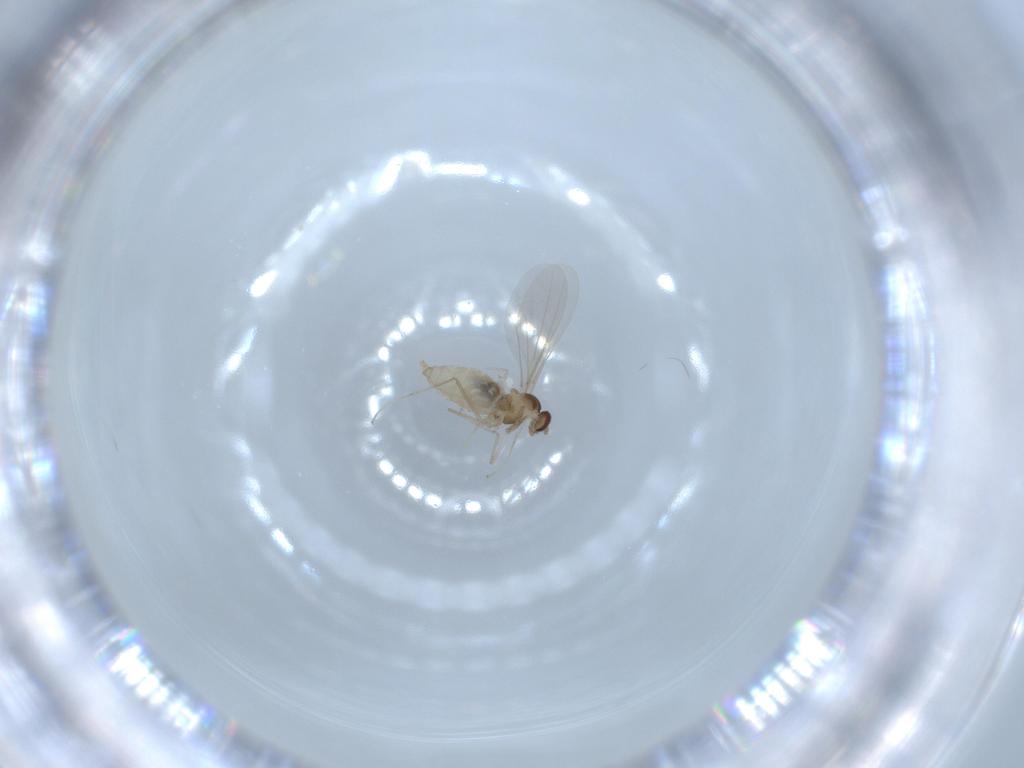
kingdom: Animalia
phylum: Arthropoda
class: Insecta
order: Diptera
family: Cecidomyiidae
